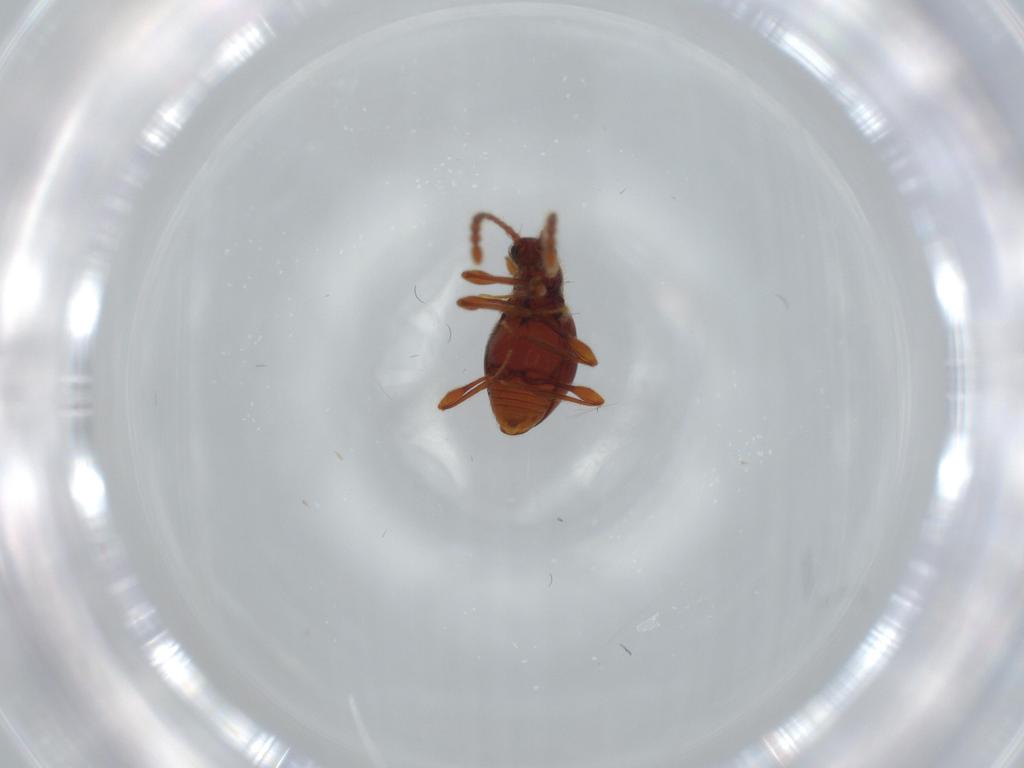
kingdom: Animalia
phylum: Arthropoda
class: Insecta
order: Coleoptera
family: Staphylinidae
